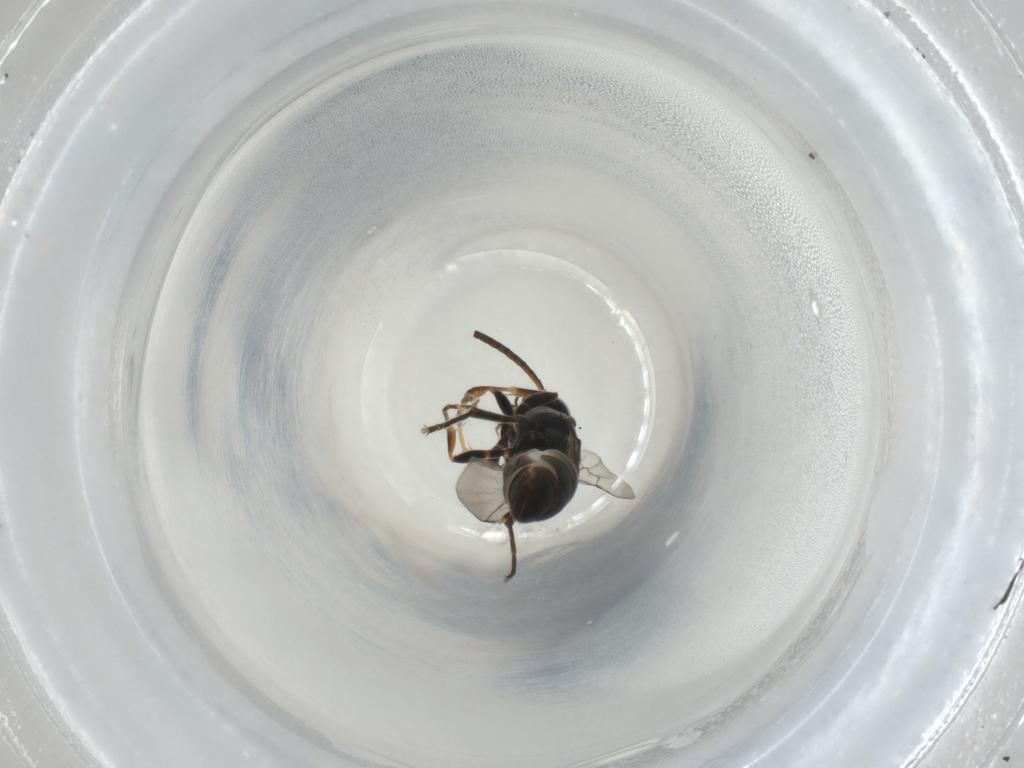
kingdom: Animalia
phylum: Arthropoda
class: Insecta
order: Hymenoptera
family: Crabronidae
